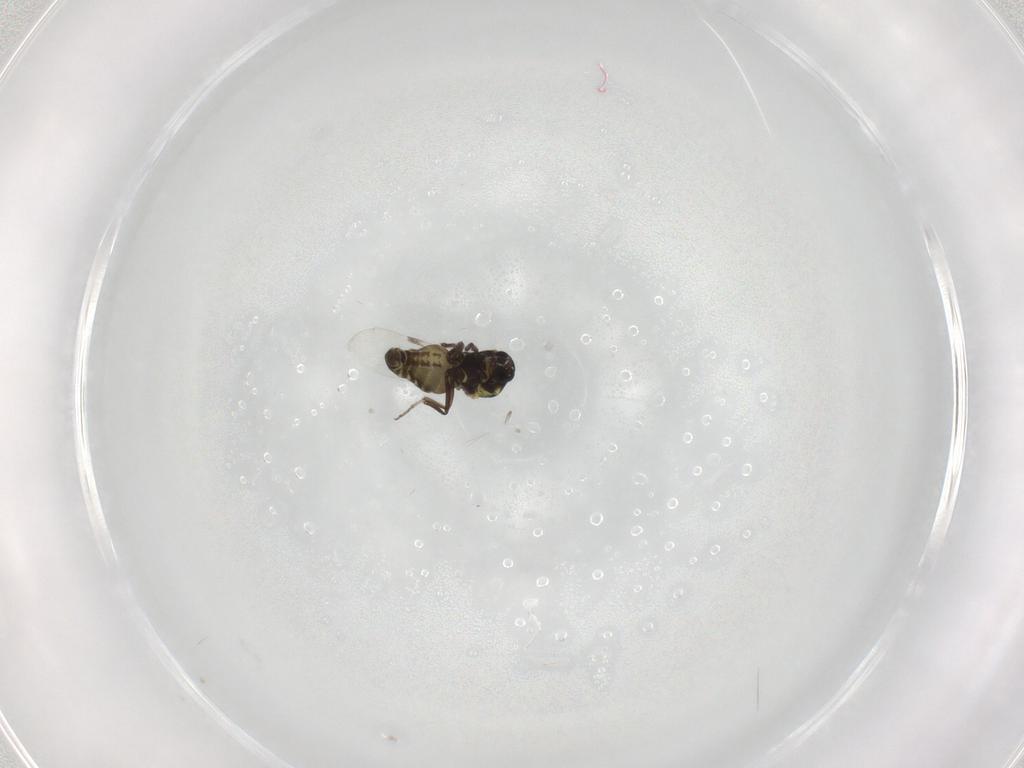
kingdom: Animalia
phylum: Arthropoda
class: Insecta
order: Diptera
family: Ceratopogonidae
